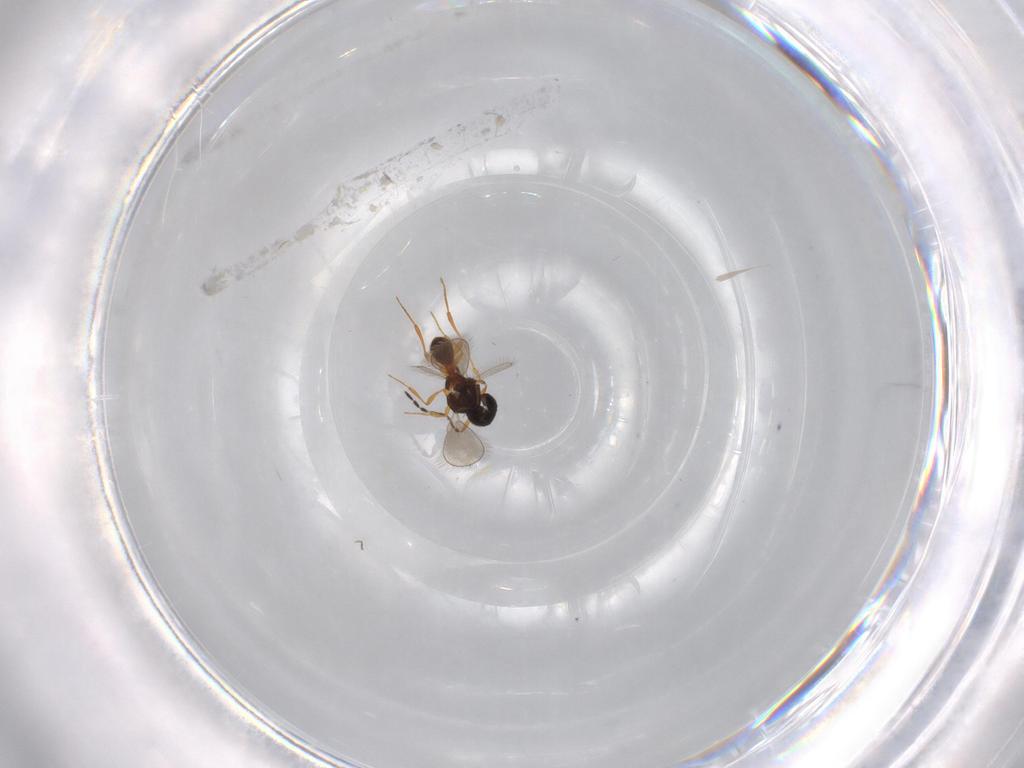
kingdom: Animalia
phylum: Arthropoda
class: Insecta
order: Hymenoptera
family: Platygastridae
